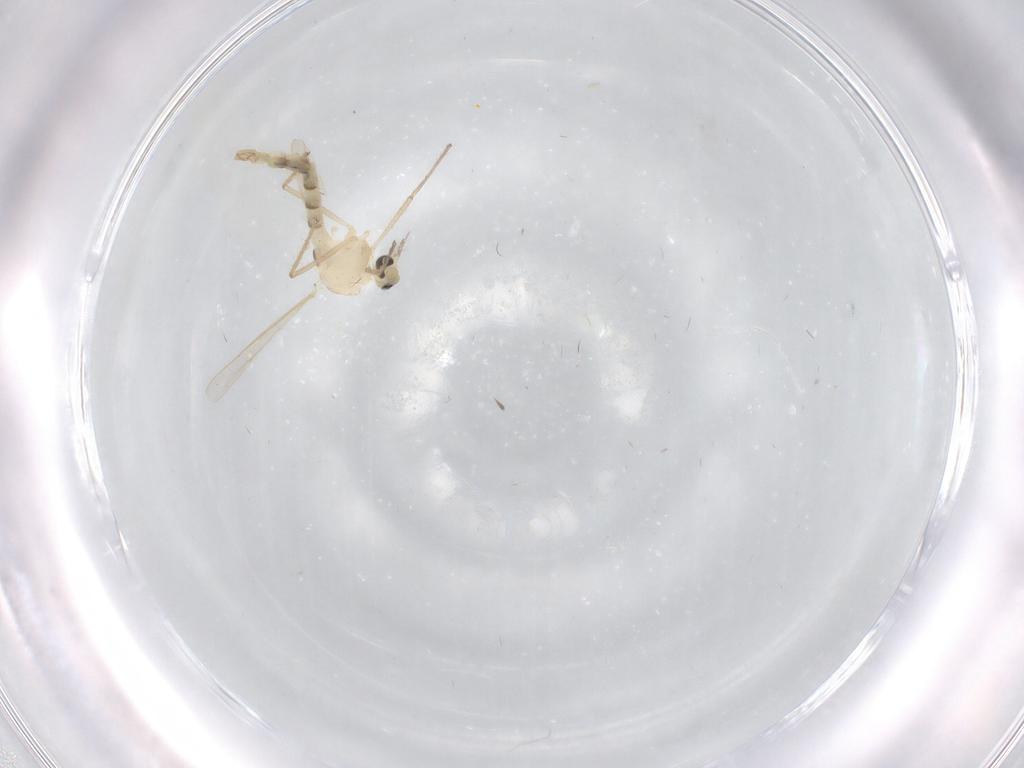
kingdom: Animalia
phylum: Arthropoda
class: Insecta
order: Diptera
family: Chironomidae
